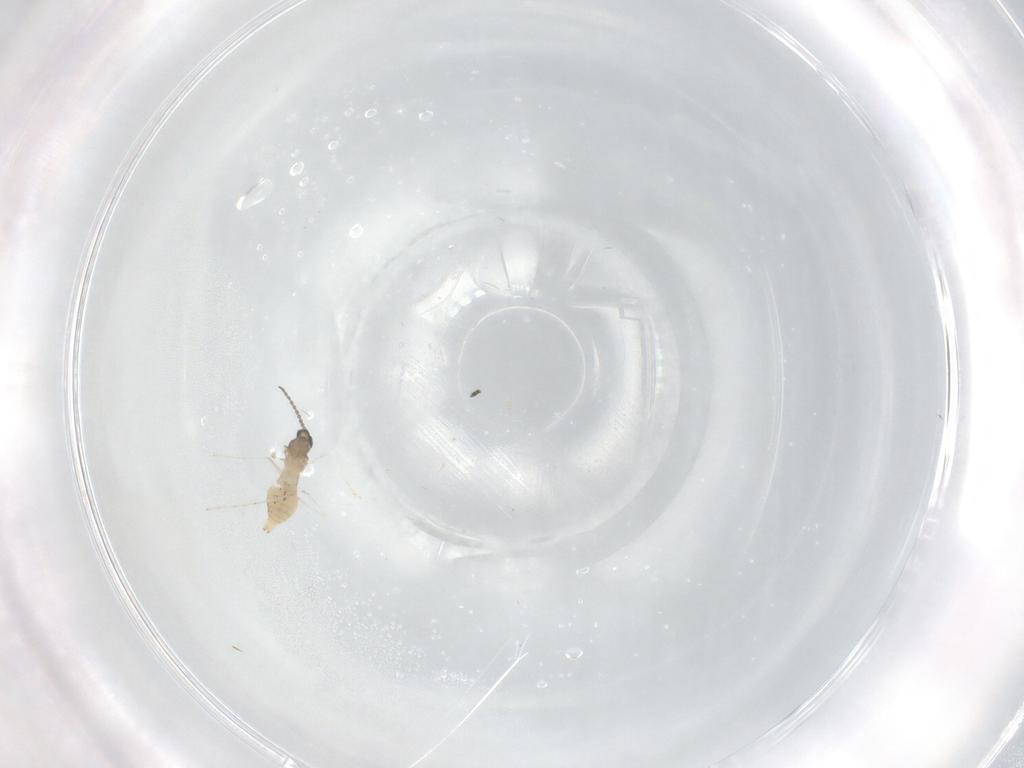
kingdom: Animalia
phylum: Arthropoda
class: Insecta
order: Diptera
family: Cecidomyiidae
